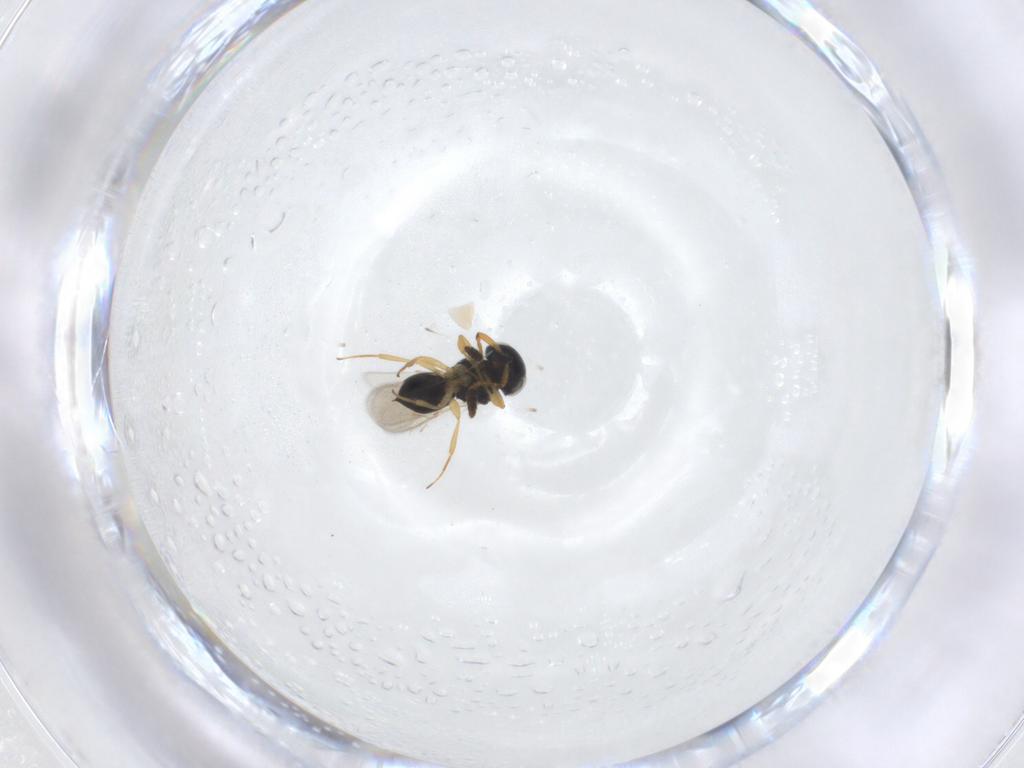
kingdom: Animalia
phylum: Arthropoda
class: Insecta
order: Hymenoptera
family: Scelionidae
